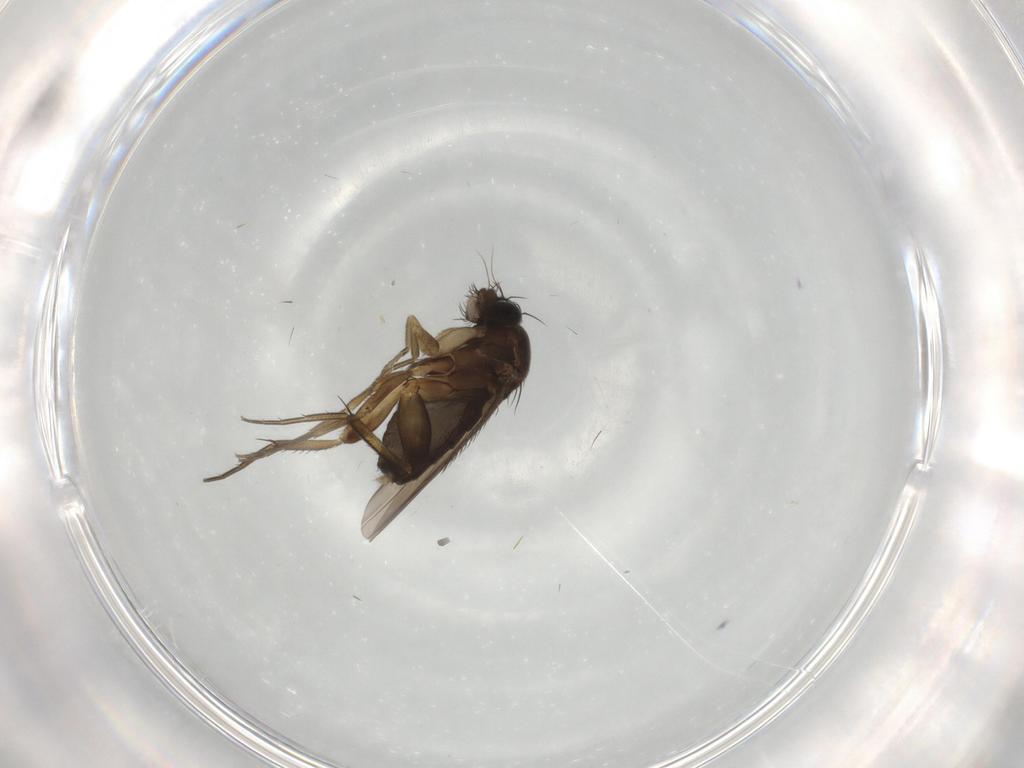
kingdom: Animalia
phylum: Arthropoda
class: Insecta
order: Diptera
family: Phoridae
